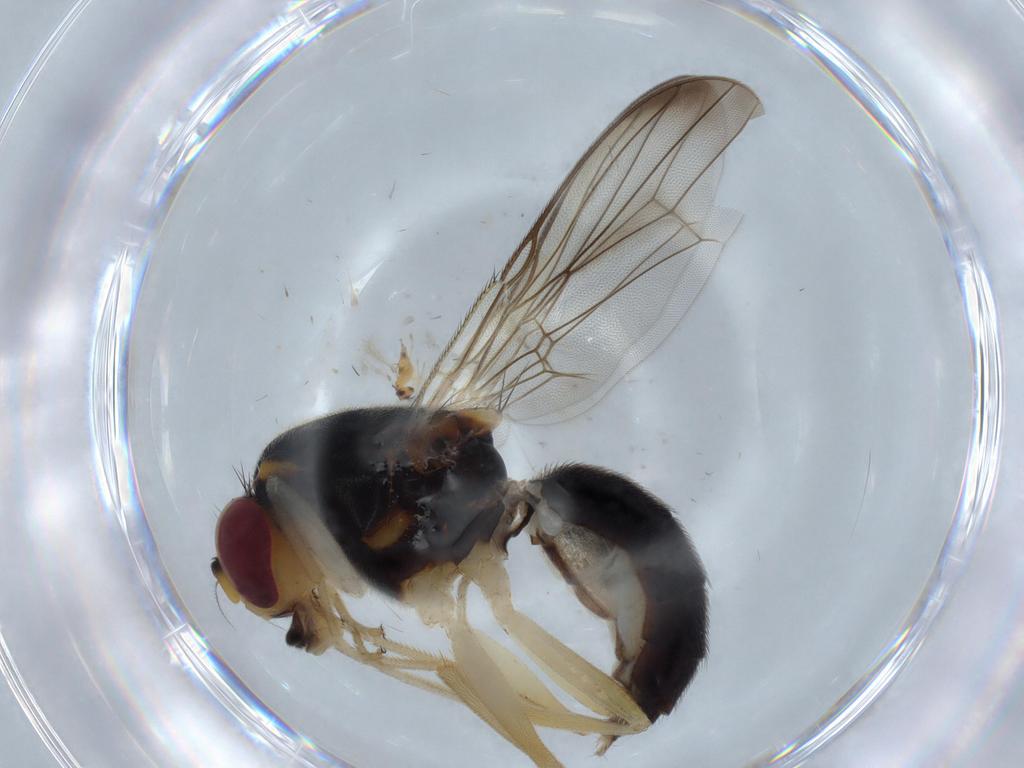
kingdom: Animalia
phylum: Arthropoda
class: Insecta
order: Diptera
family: Psilidae
